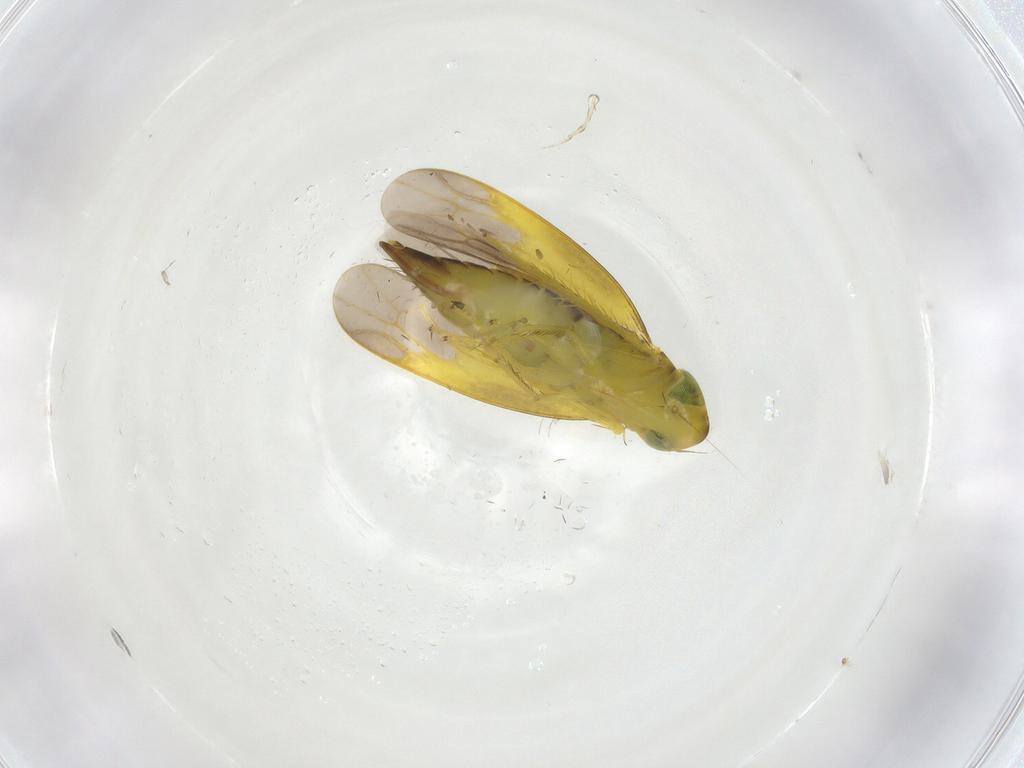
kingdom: Animalia
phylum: Arthropoda
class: Insecta
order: Hemiptera
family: Cicadellidae
